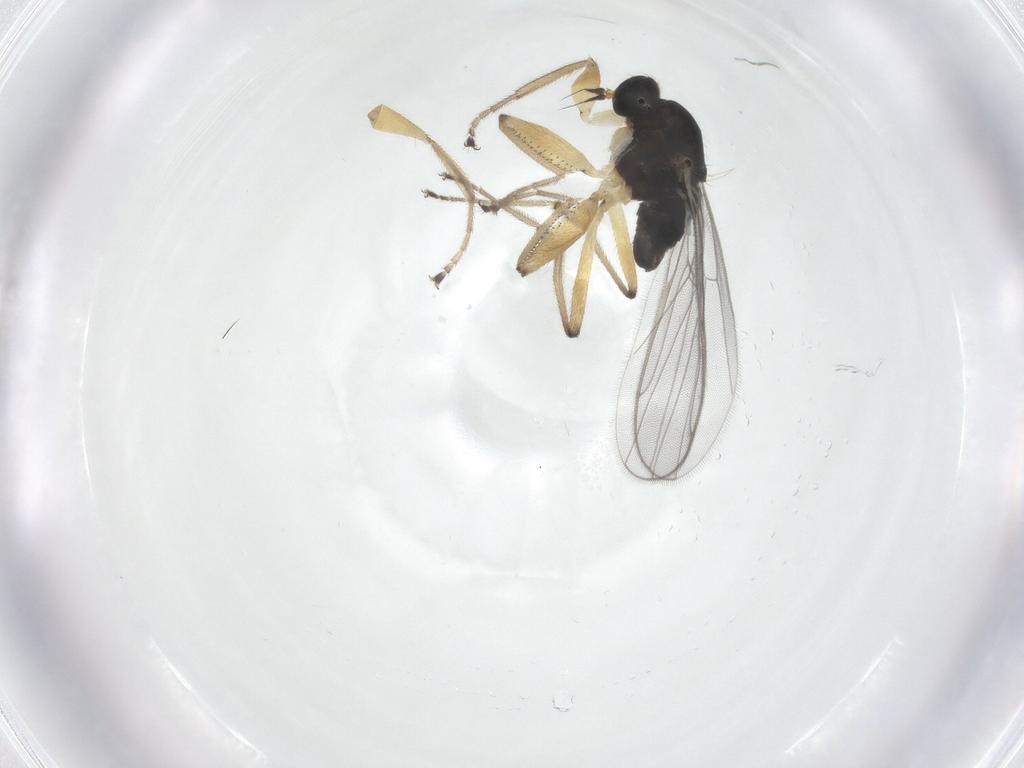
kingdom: Animalia
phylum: Arthropoda
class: Insecta
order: Diptera
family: Hybotidae
